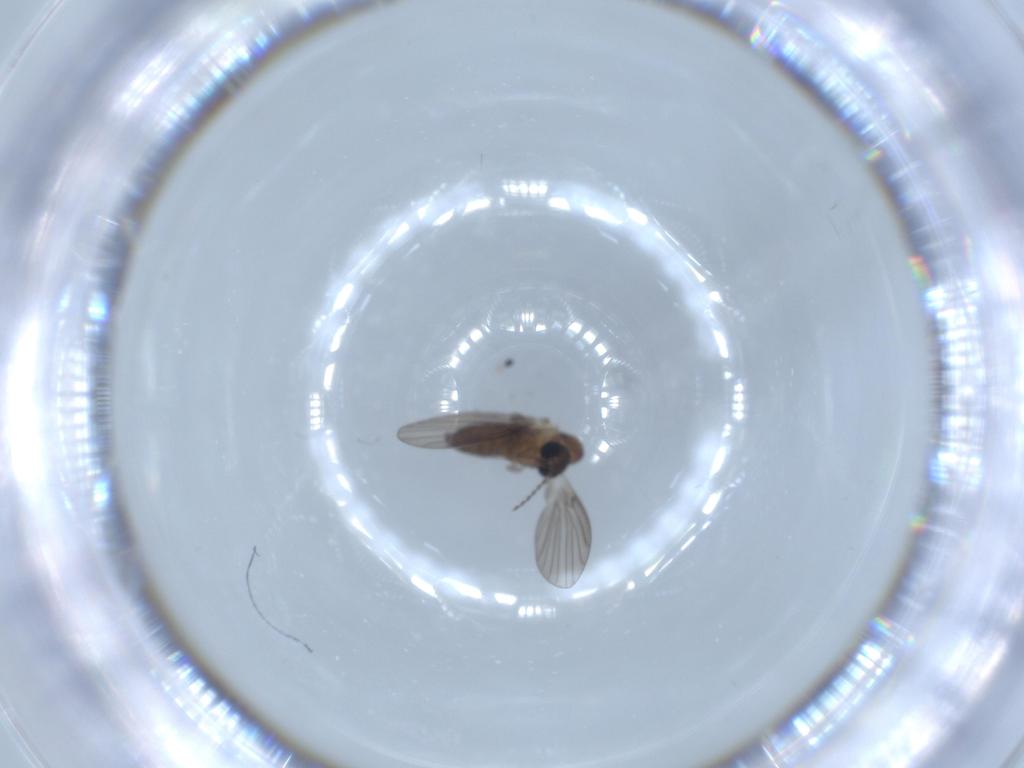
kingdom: Animalia
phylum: Arthropoda
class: Insecta
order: Diptera
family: Psychodidae
